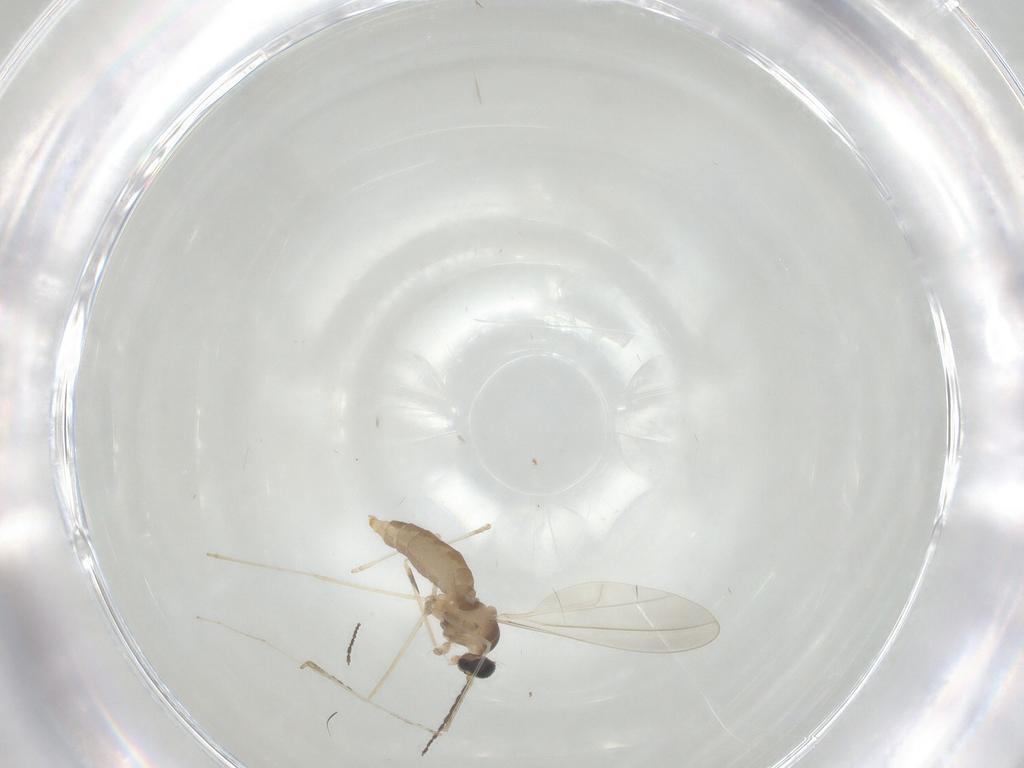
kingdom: Animalia
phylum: Arthropoda
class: Insecta
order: Diptera
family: Cecidomyiidae
